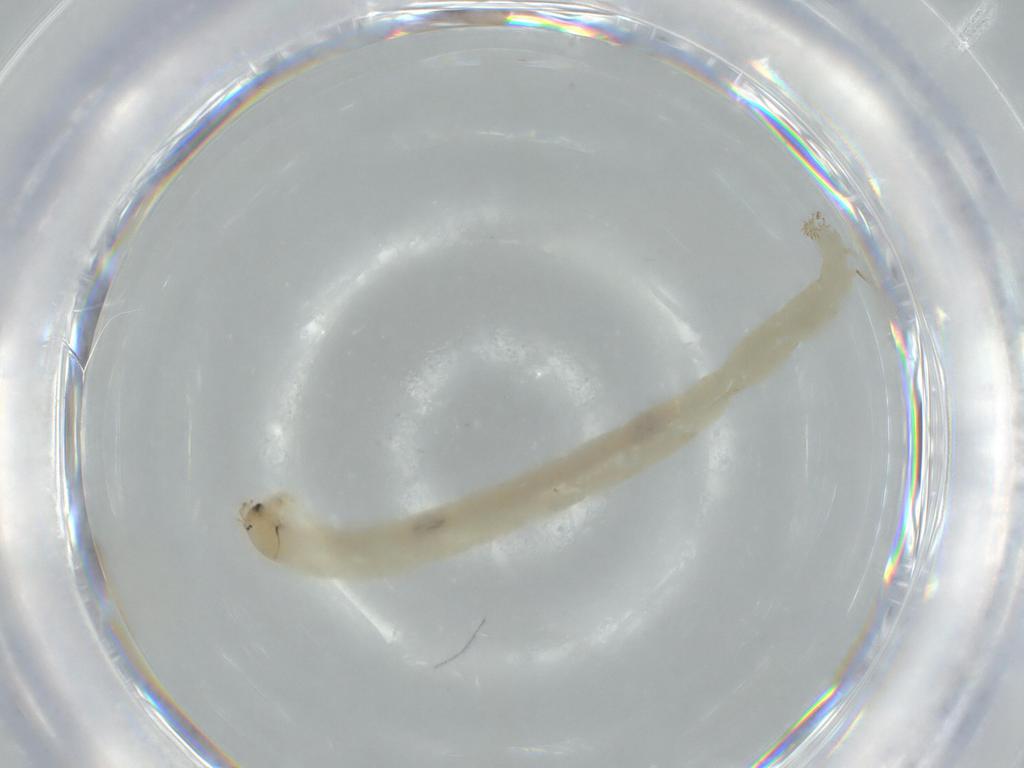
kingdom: Animalia
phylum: Arthropoda
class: Insecta
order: Diptera
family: Chironomidae
